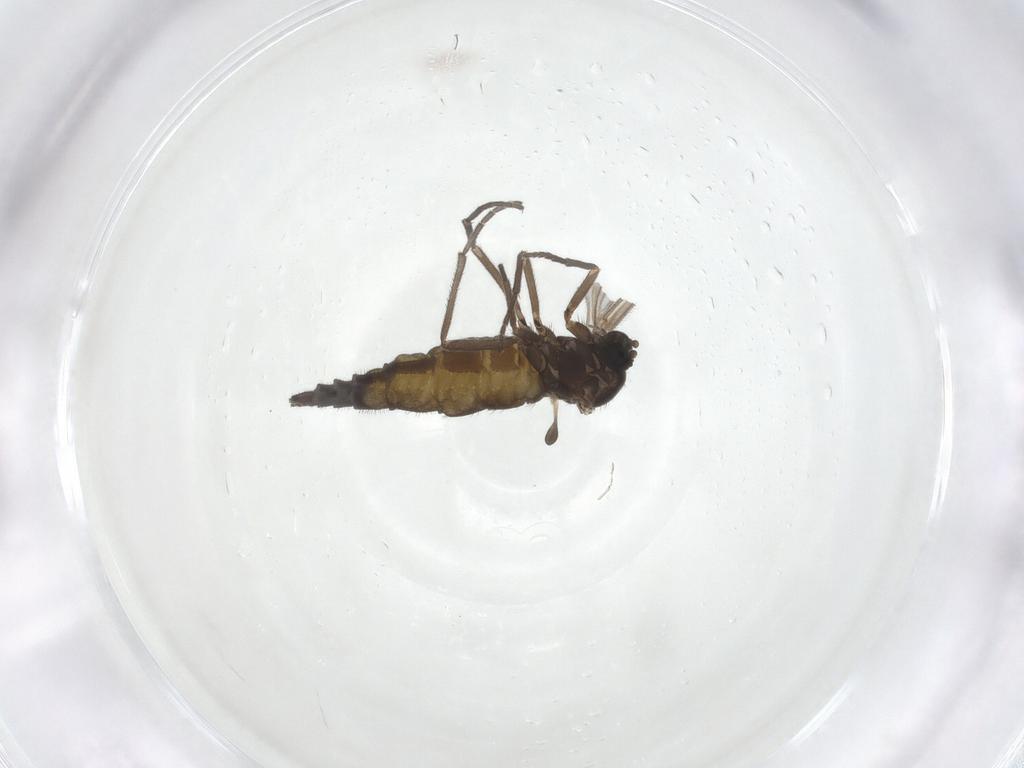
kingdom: Animalia
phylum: Arthropoda
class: Insecta
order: Diptera
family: Sciaridae
